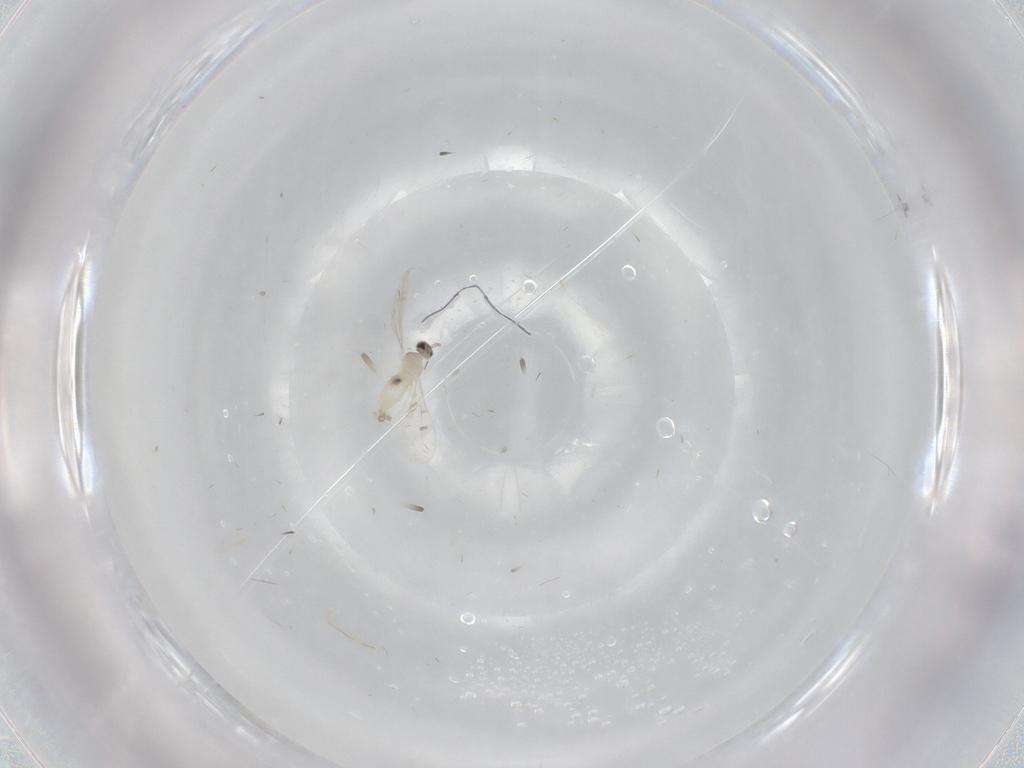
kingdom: Animalia
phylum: Arthropoda
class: Insecta
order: Diptera
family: Cecidomyiidae
